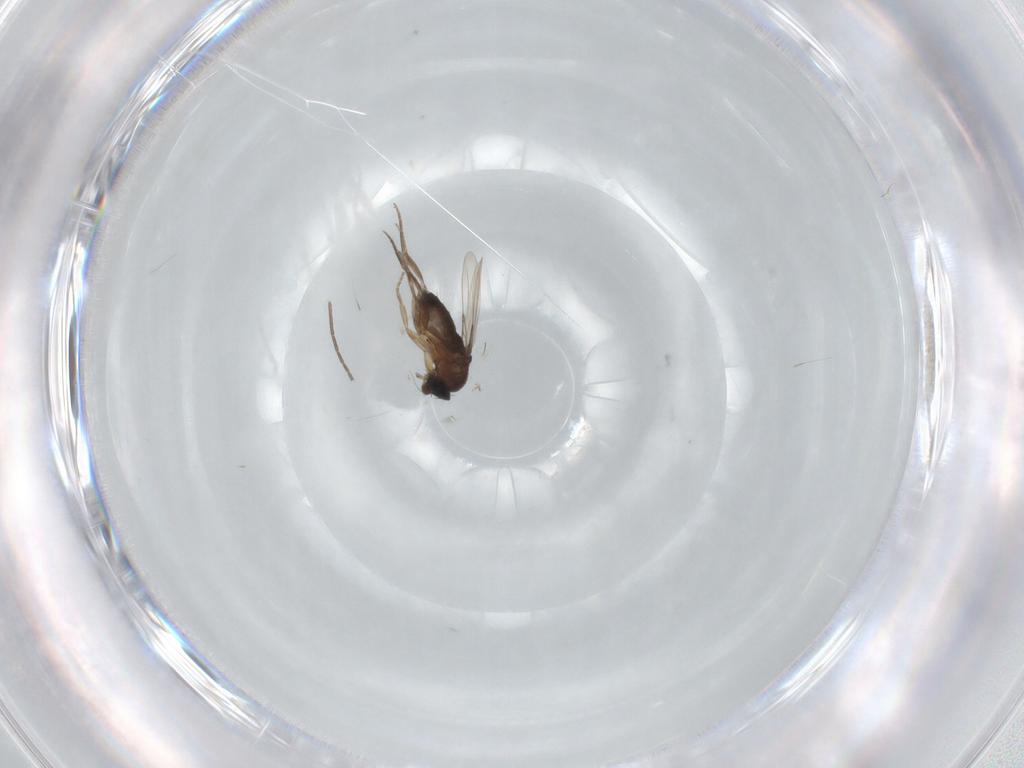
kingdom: Animalia
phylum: Arthropoda
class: Insecta
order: Diptera
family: Phoridae
